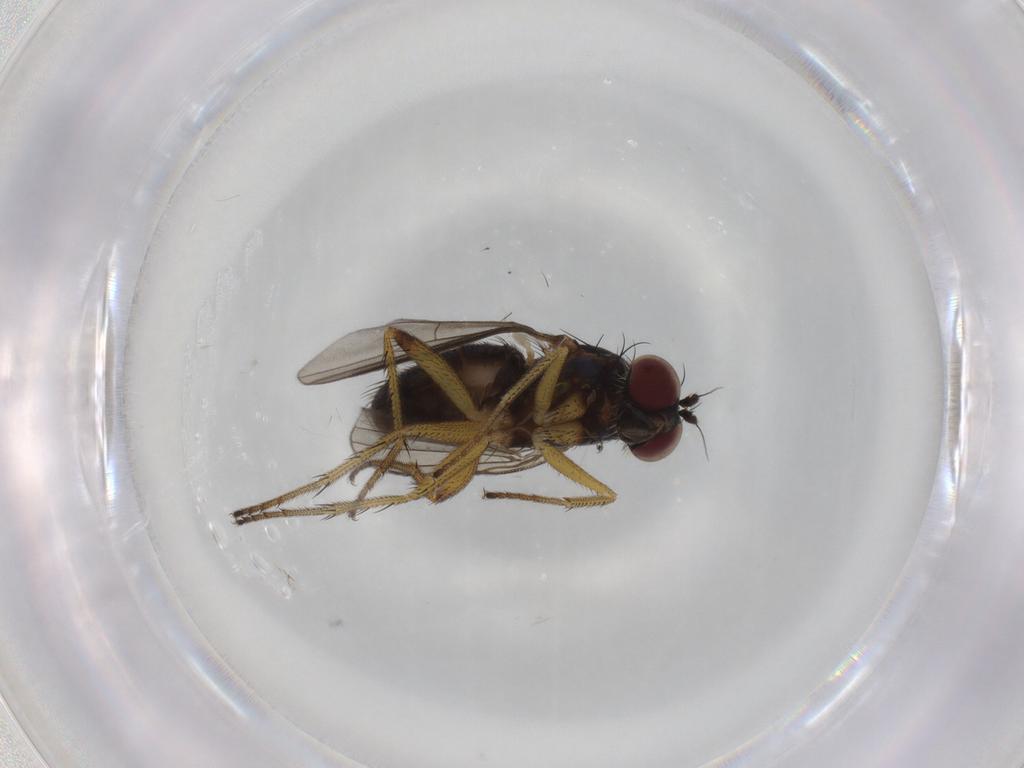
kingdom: Animalia
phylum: Arthropoda
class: Insecta
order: Diptera
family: Dolichopodidae
